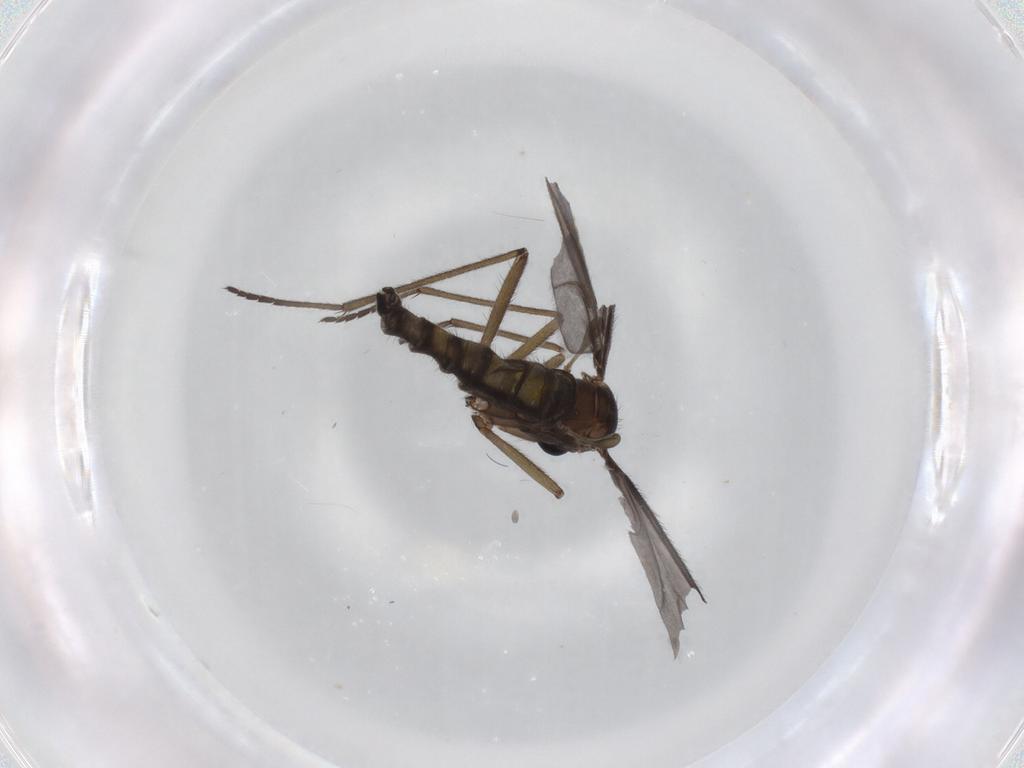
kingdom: Animalia
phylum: Arthropoda
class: Insecta
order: Diptera
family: Sciaridae
